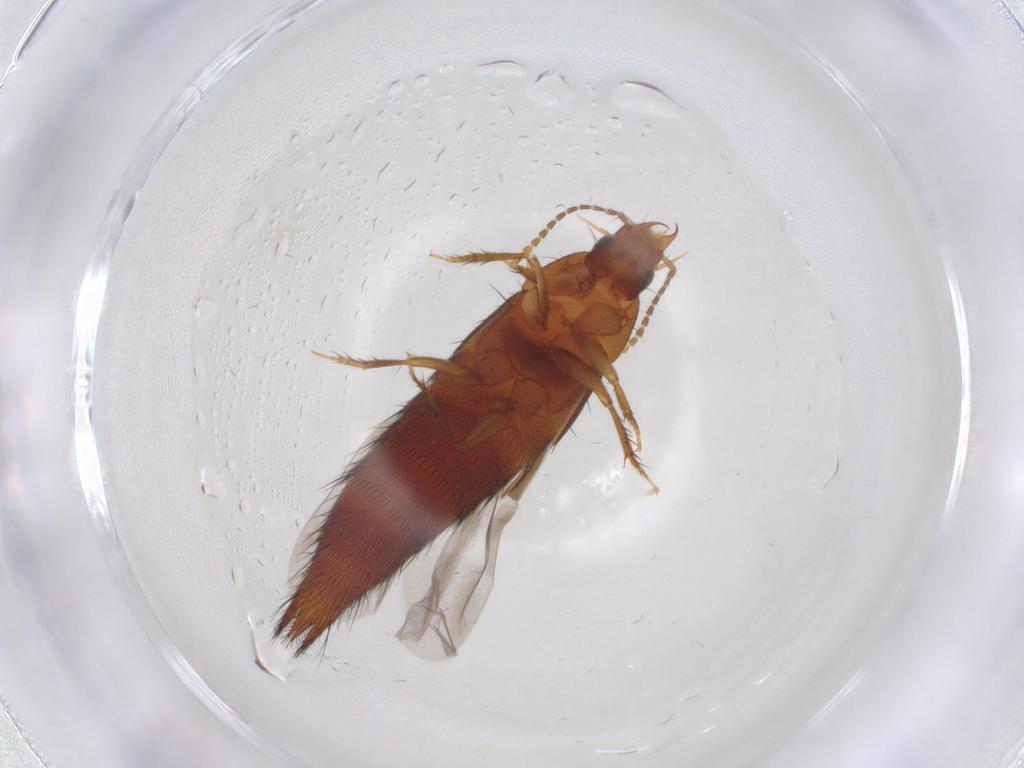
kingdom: Animalia
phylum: Arthropoda
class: Insecta
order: Coleoptera
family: Staphylinidae
